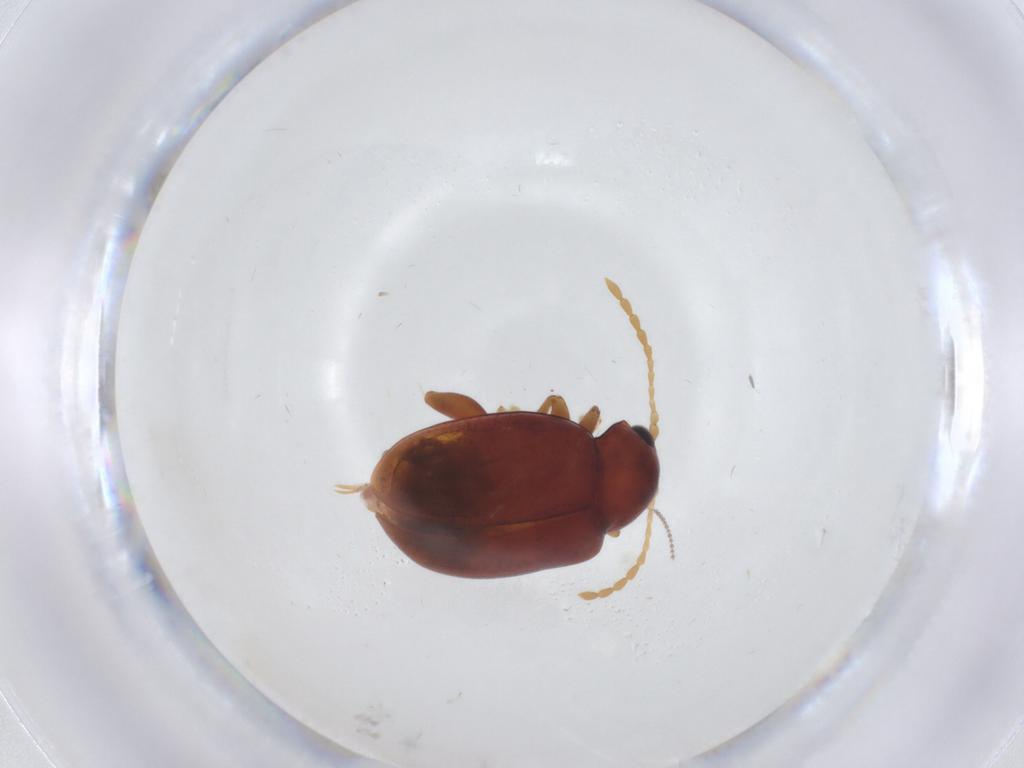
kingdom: Animalia
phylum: Arthropoda
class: Insecta
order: Coleoptera
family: Chrysomelidae
